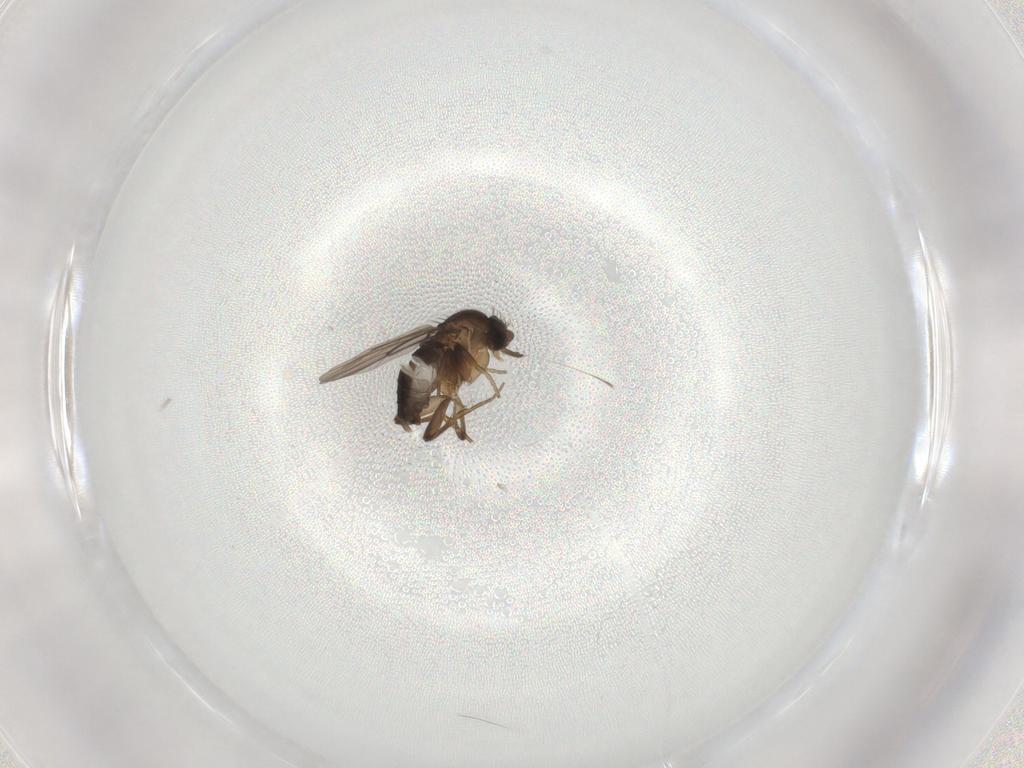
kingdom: Animalia
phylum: Arthropoda
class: Insecta
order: Diptera
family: Phoridae
